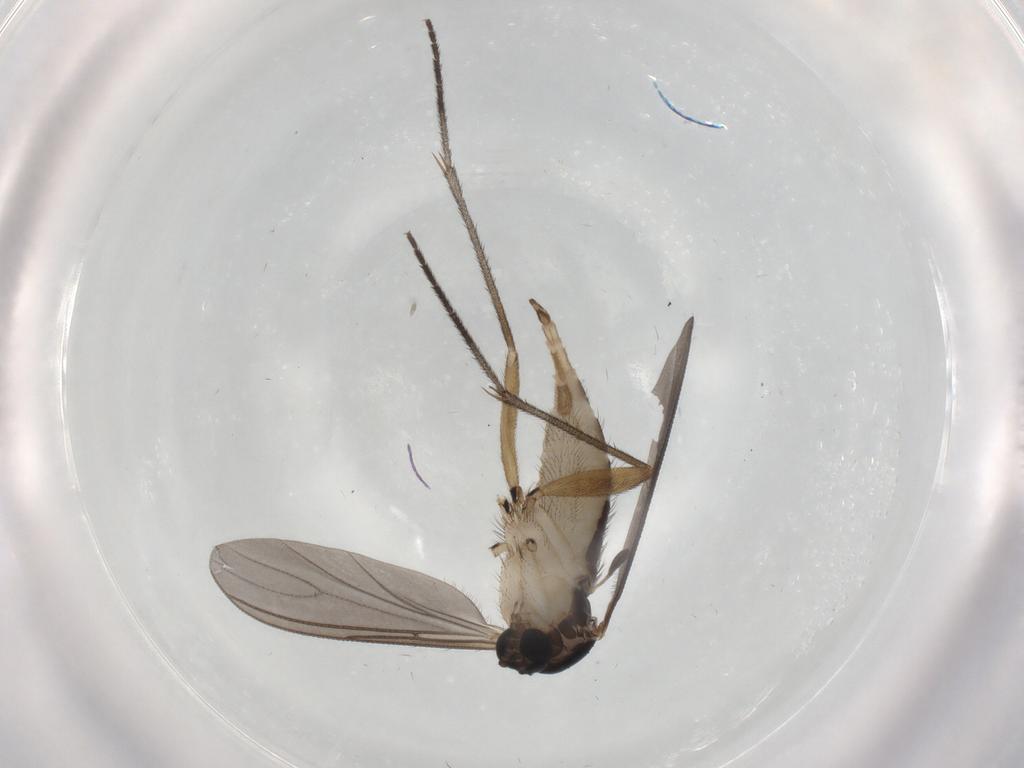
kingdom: Animalia
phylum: Arthropoda
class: Insecta
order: Diptera
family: Sciaridae
